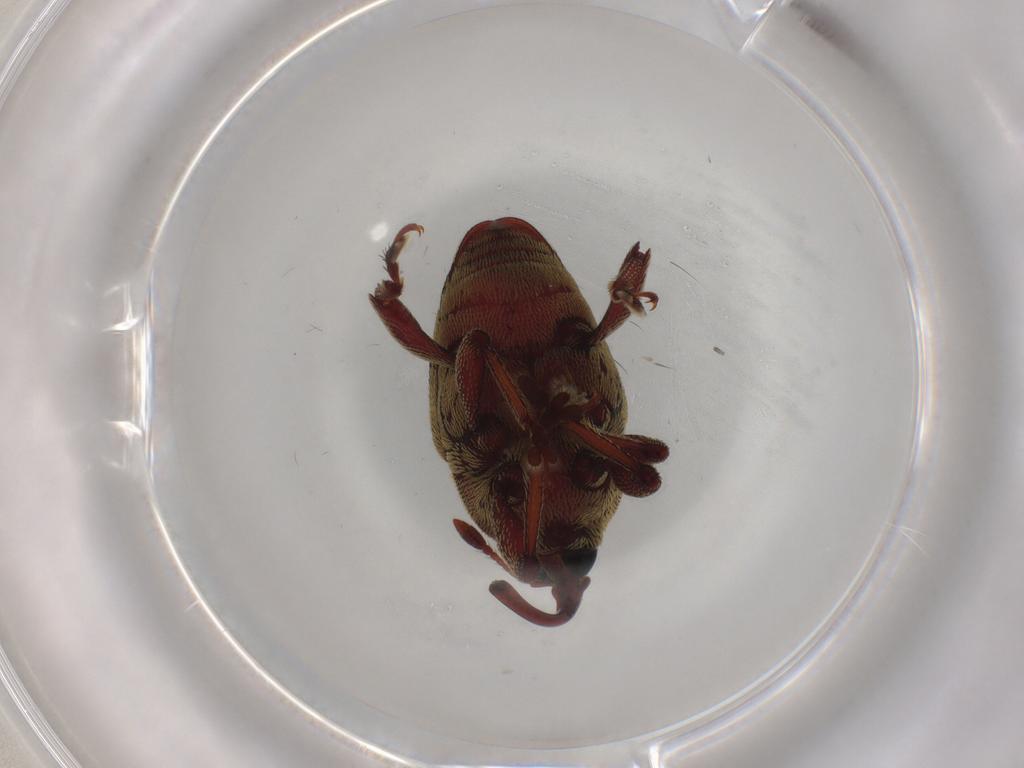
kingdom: Animalia
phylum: Arthropoda
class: Insecta
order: Coleoptera
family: Curculionidae
